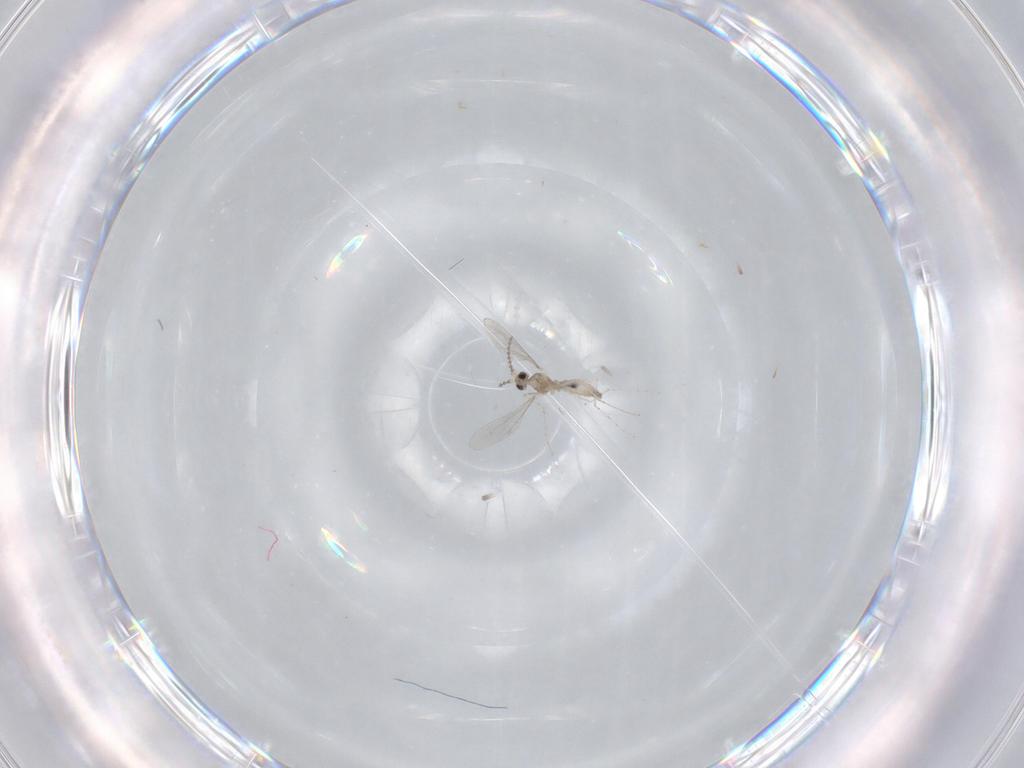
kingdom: Animalia
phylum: Arthropoda
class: Insecta
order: Diptera
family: Cecidomyiidae
